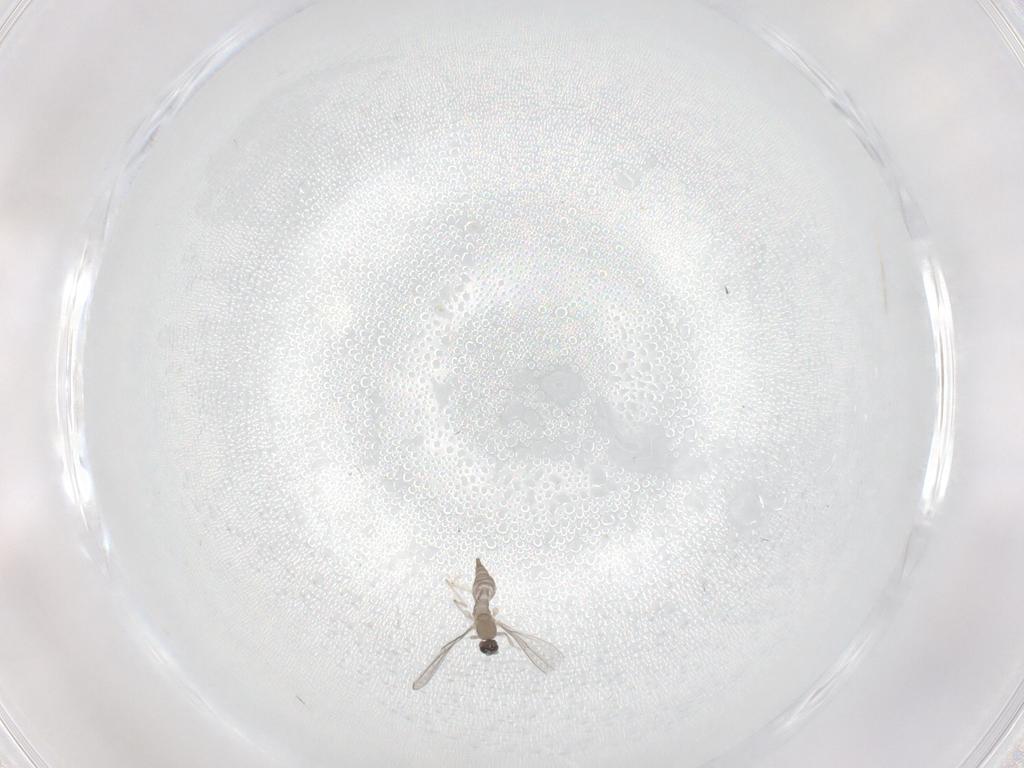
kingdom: Animalia
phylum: Arthropoda
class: Insecta
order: Diptera
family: Cecidomyiidae
